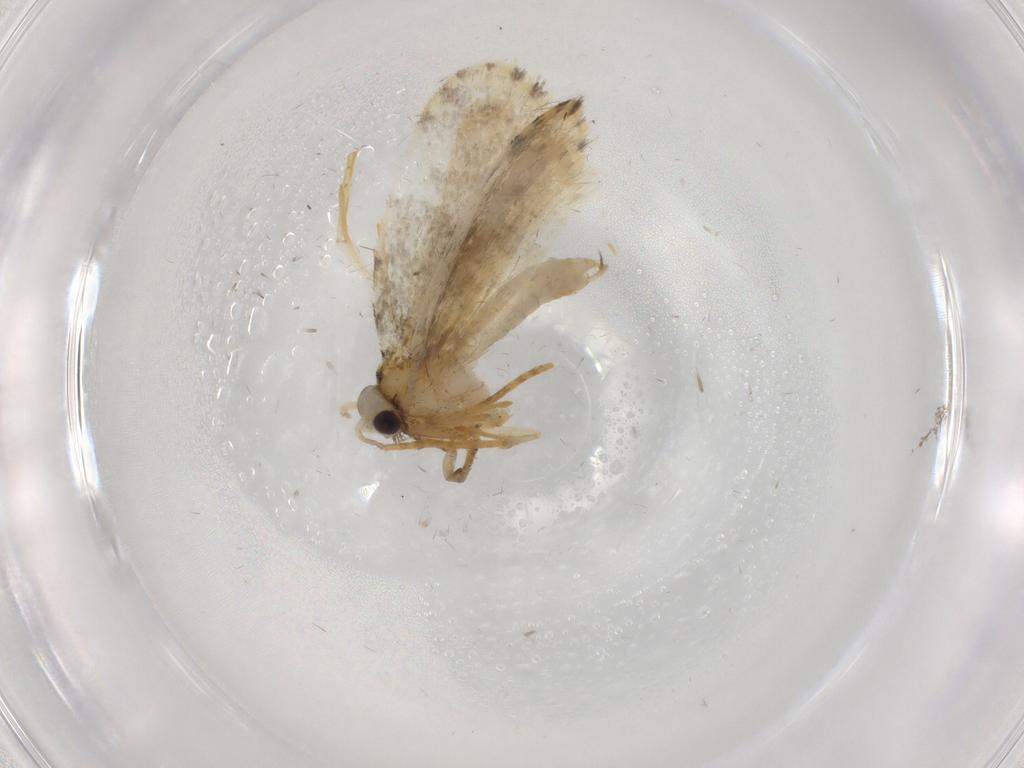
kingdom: Animalia
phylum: Arthropoda
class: Insecta
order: Lepidoptera
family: Psychidae
